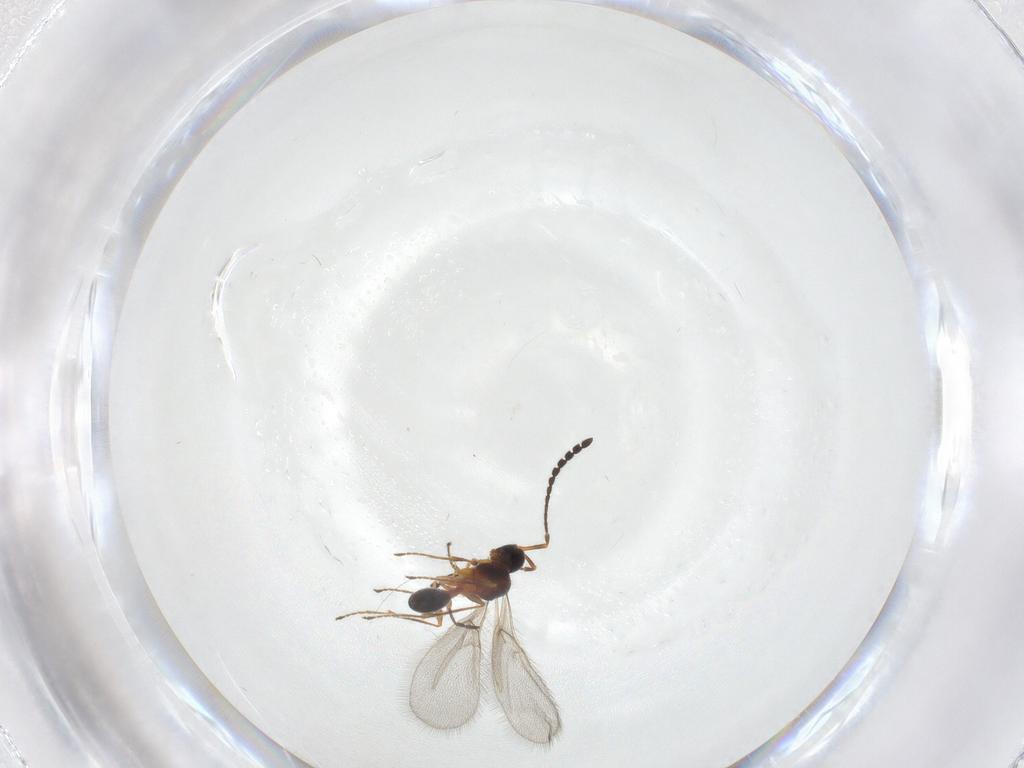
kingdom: Animalia
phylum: Arthropoda
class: Insecta
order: Hymenoptera
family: Diapriidae
